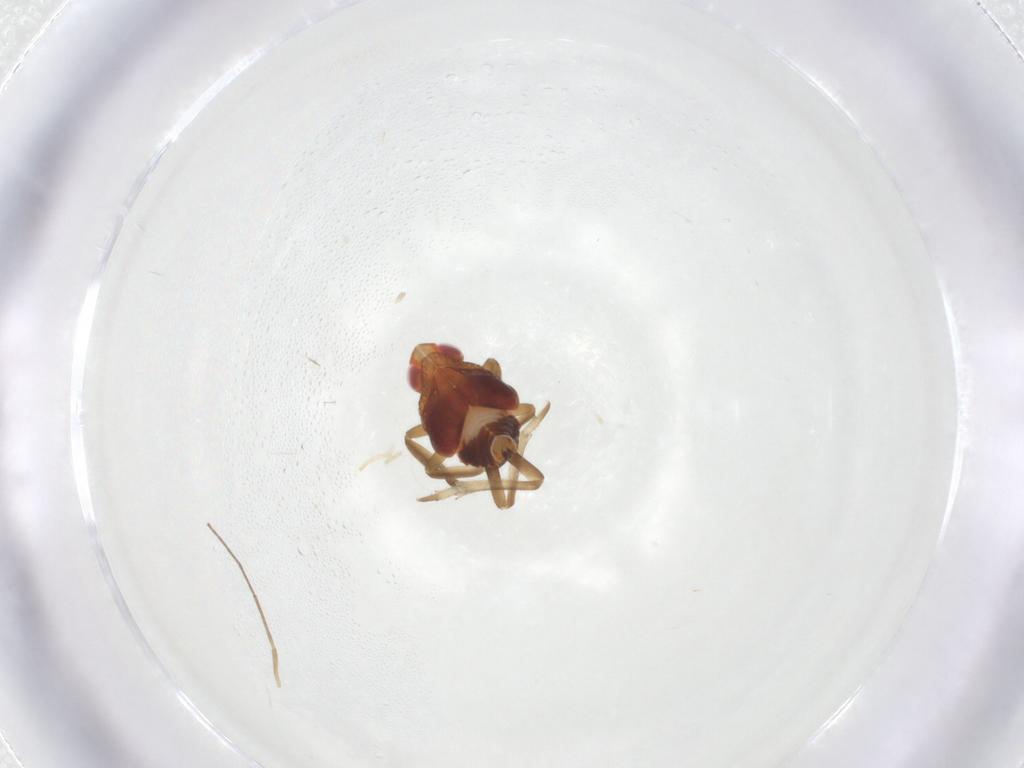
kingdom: Animalia
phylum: Arthropoda
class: Insecta
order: Hemiptera
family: Fulgoroidea_incertae_sedis
